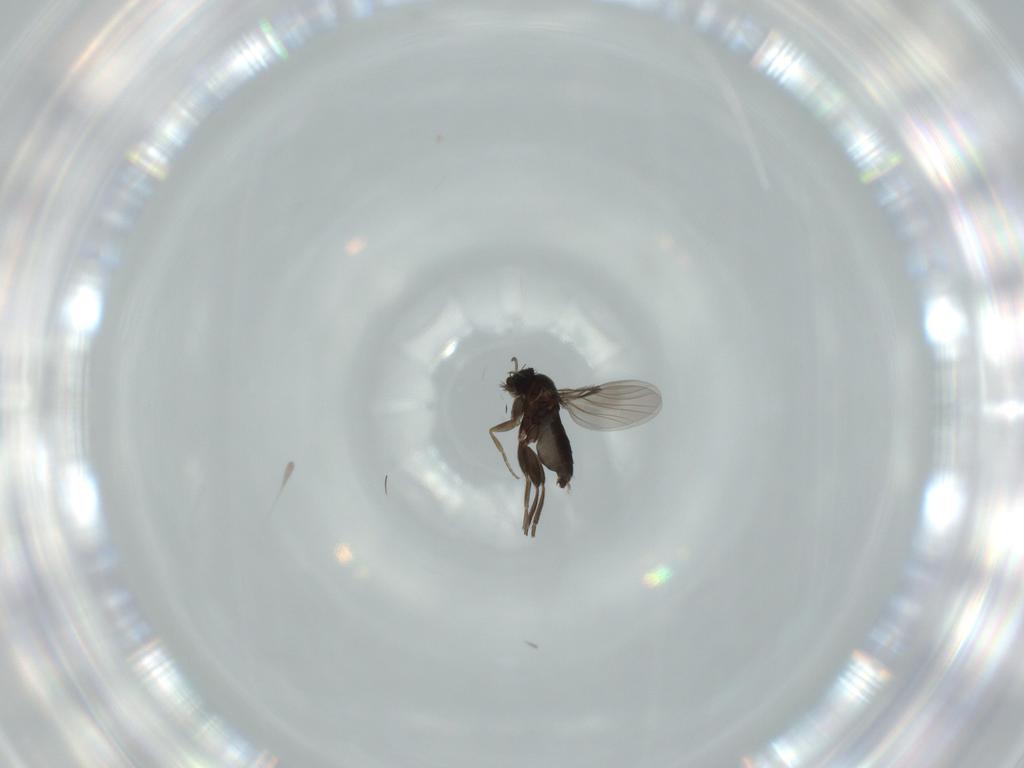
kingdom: Animalia
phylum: Arthropoda
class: Insecta
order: Diptera
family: Phoridae
